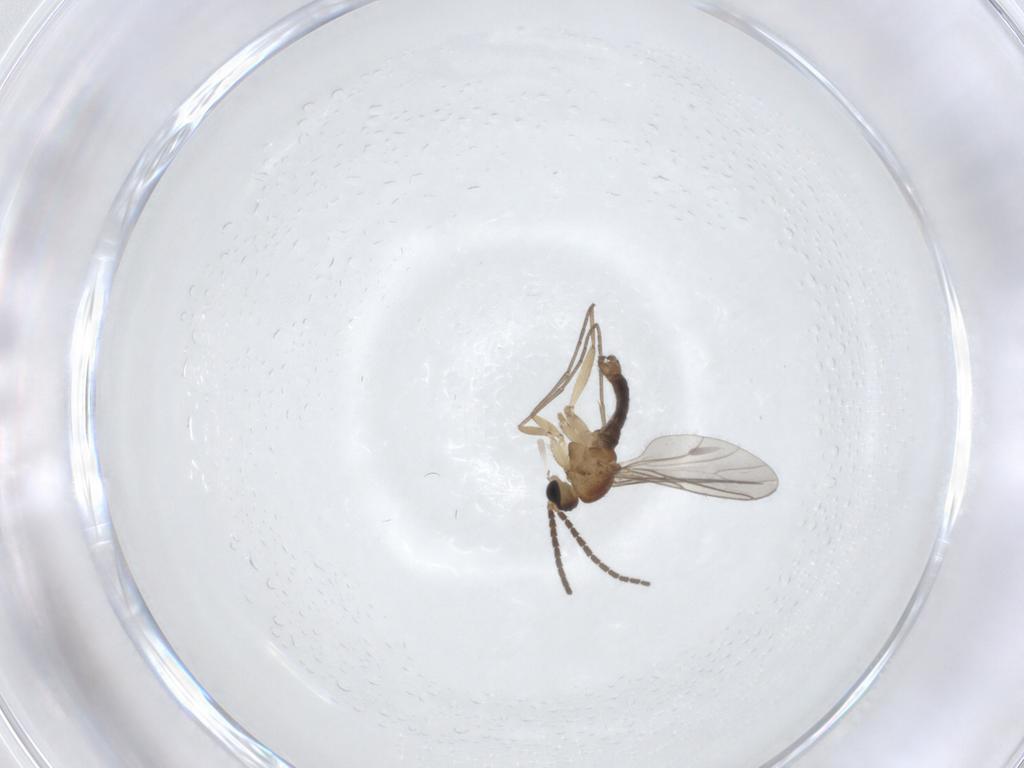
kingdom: Animalia
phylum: Arthropoda
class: Insecta
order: Diptera
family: Sciaridae
